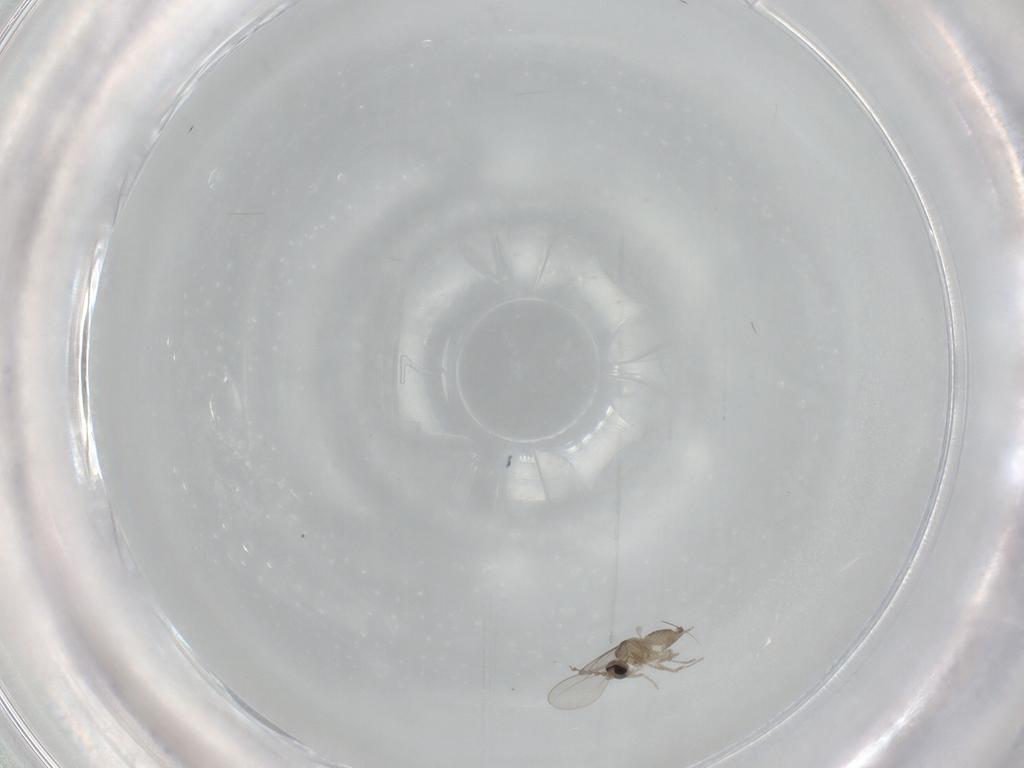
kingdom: Animalia
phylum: Arthropoda
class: Insecta
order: Diptera
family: Cecidomyiidae
